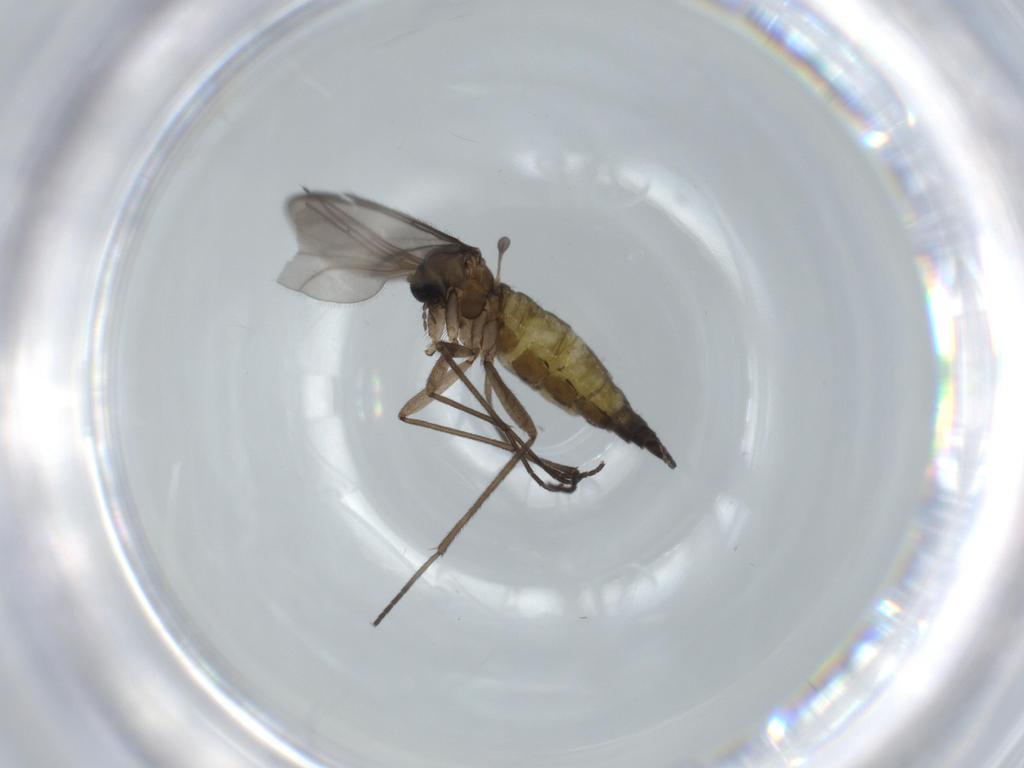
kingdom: Animalia
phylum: Arthropoda
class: Insecta
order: Diptera
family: Sciaridae
